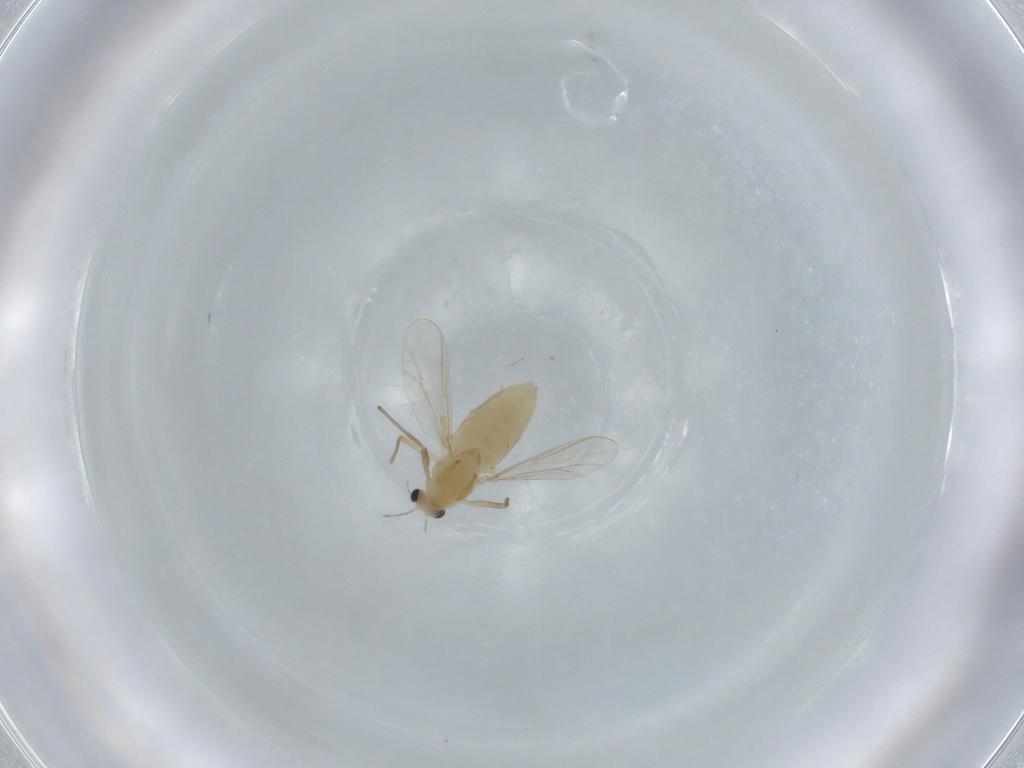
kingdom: Animalia
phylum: Arthropoda
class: Insecta
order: Diptera
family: Chironomidae
